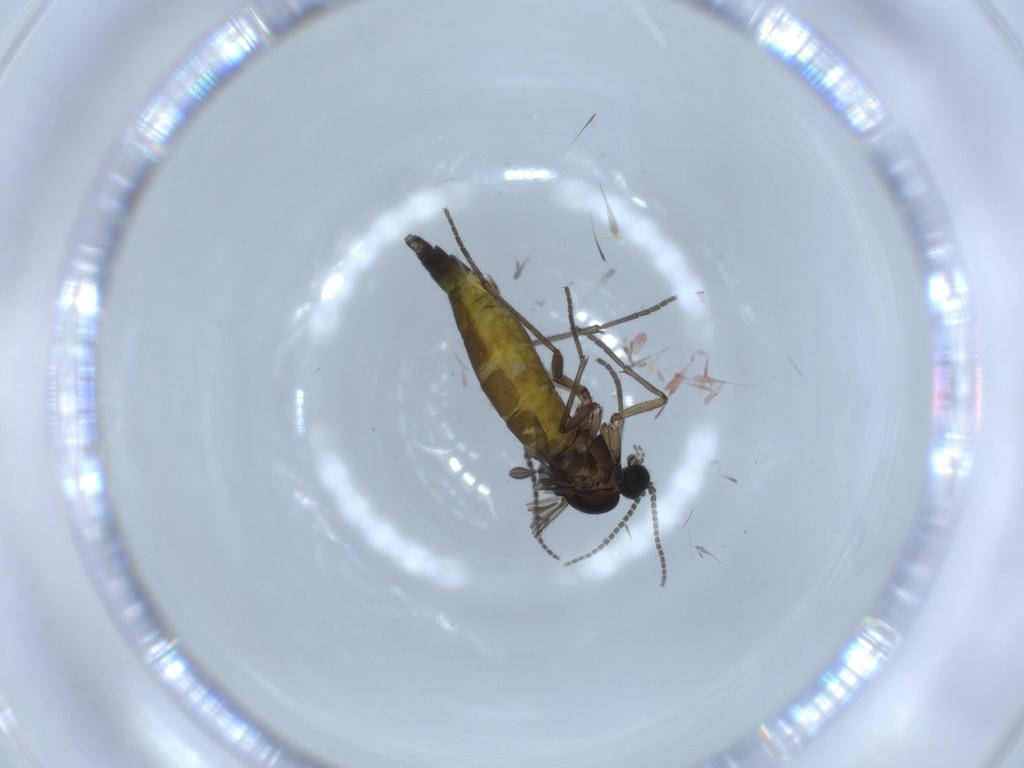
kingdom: Animalia
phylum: Arthropoda
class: Insecta
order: Diptera
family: Sciaridae
